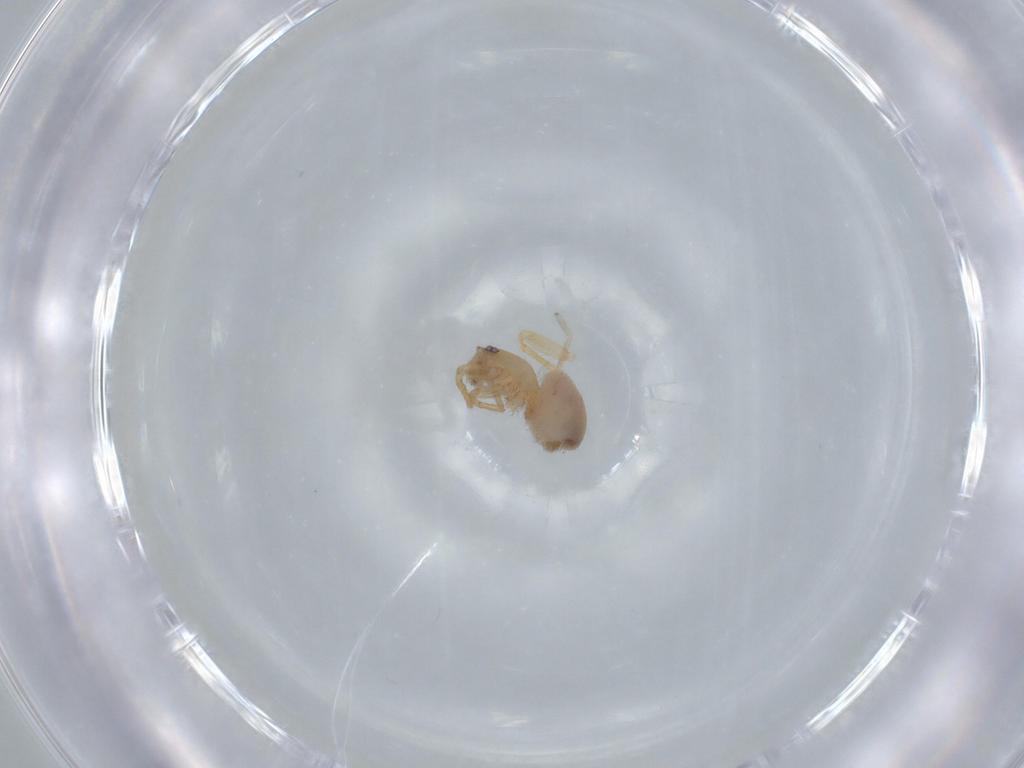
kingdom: Animalia
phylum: Arthropoda
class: Arachnida
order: Araneae
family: Oonopidae
